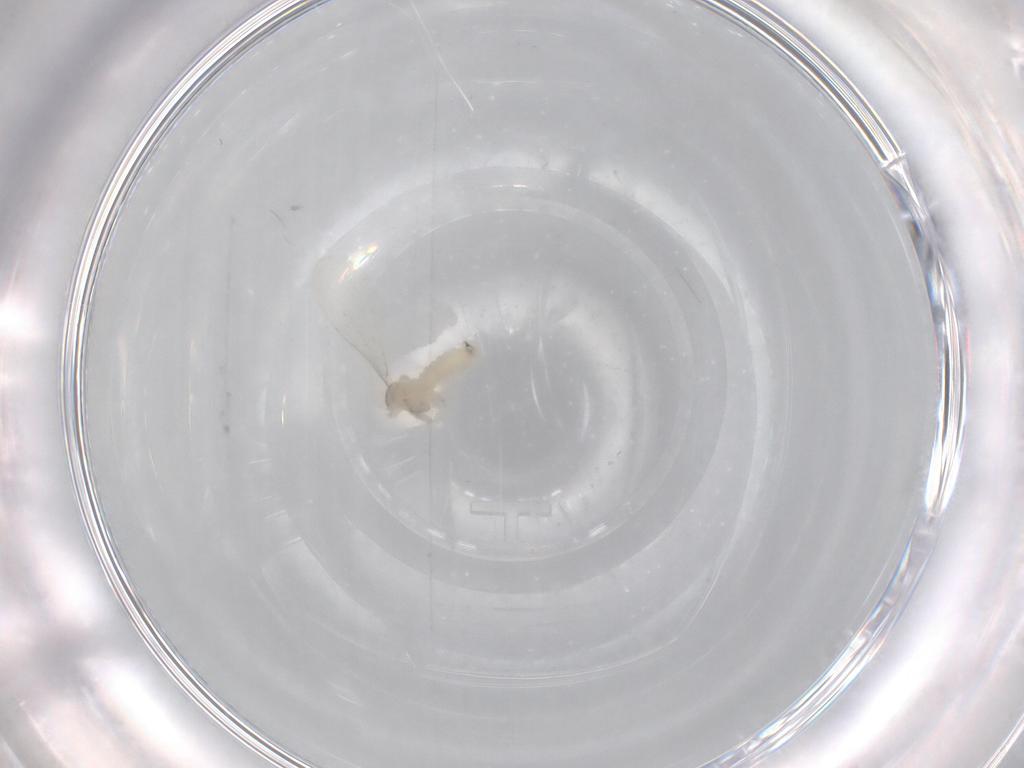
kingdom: Animalia
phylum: Arthropoda
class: Insecta
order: Diptera
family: Cecidomyiidae
